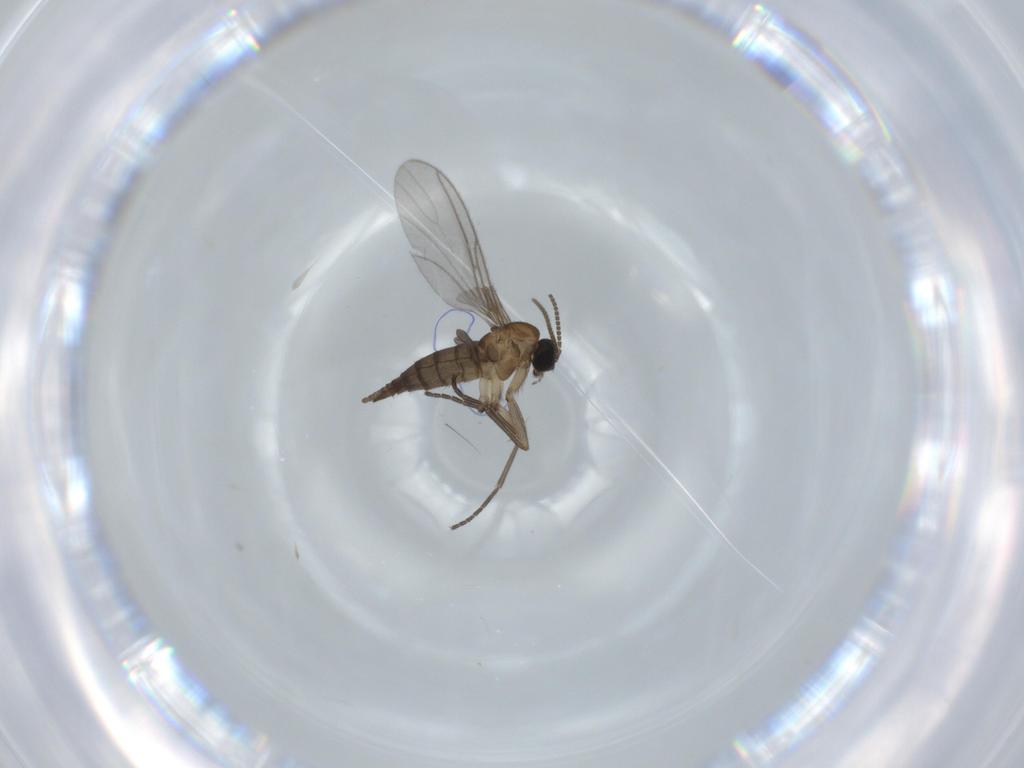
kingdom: Animalia
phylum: Arthropoda
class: Insecta
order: Diptera
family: Sciaridae
